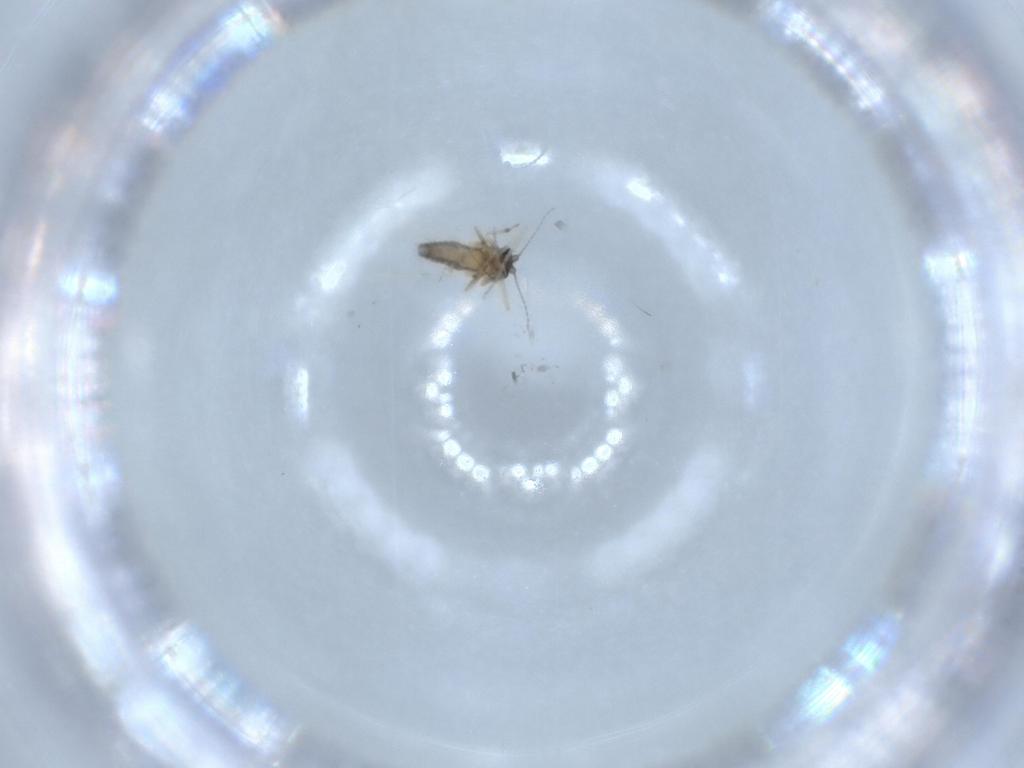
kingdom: Animalia
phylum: Arthropoda
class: Insecta
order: Diptera
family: Ceratopogonidae
